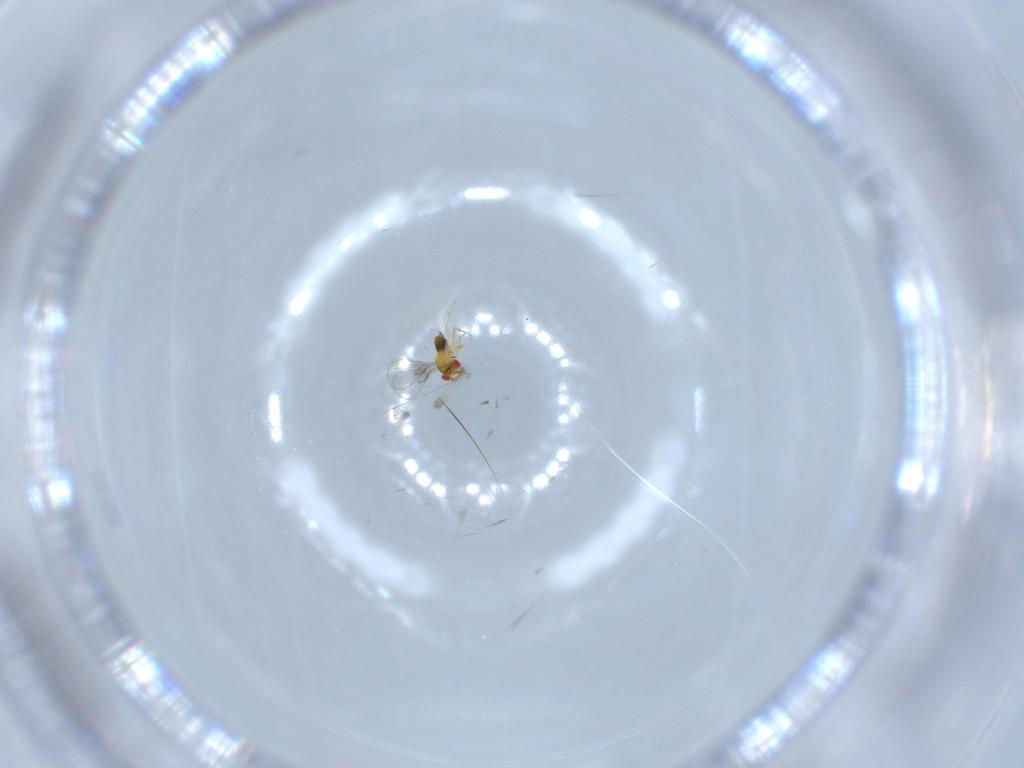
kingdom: Animalia
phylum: Arthropoda
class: Insecta
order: Hymenoptera
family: Trichogrammatidae
